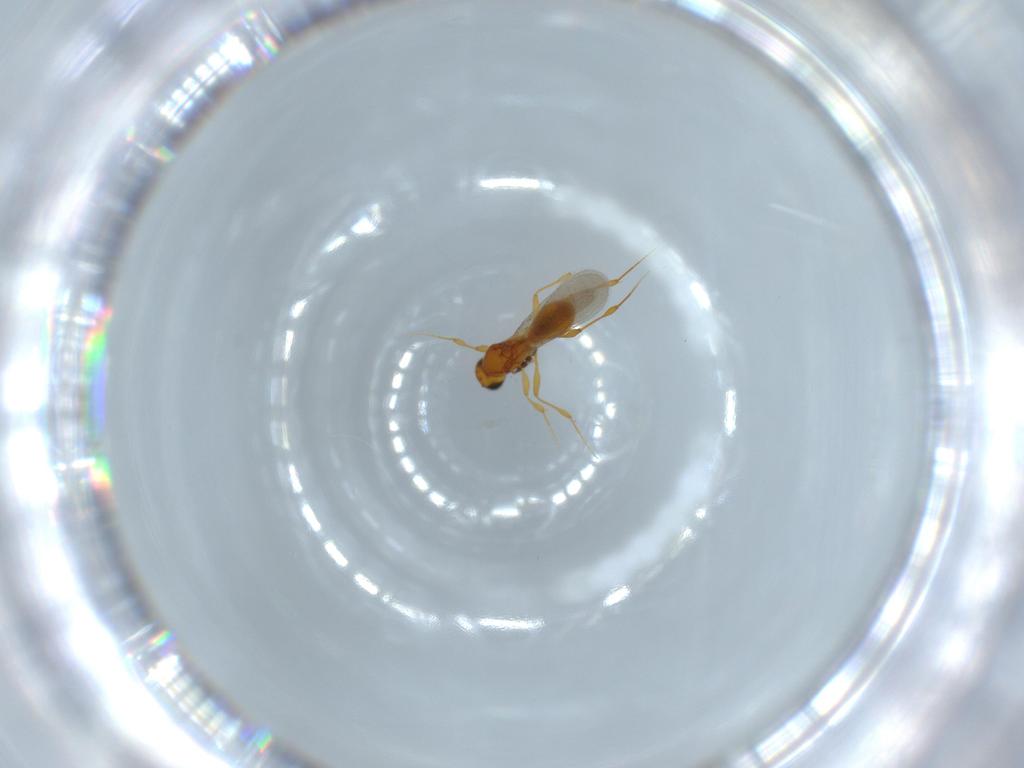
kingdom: Animalia
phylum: Arthropoda
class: Insecta
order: Hymenoptera
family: Platygastridae
